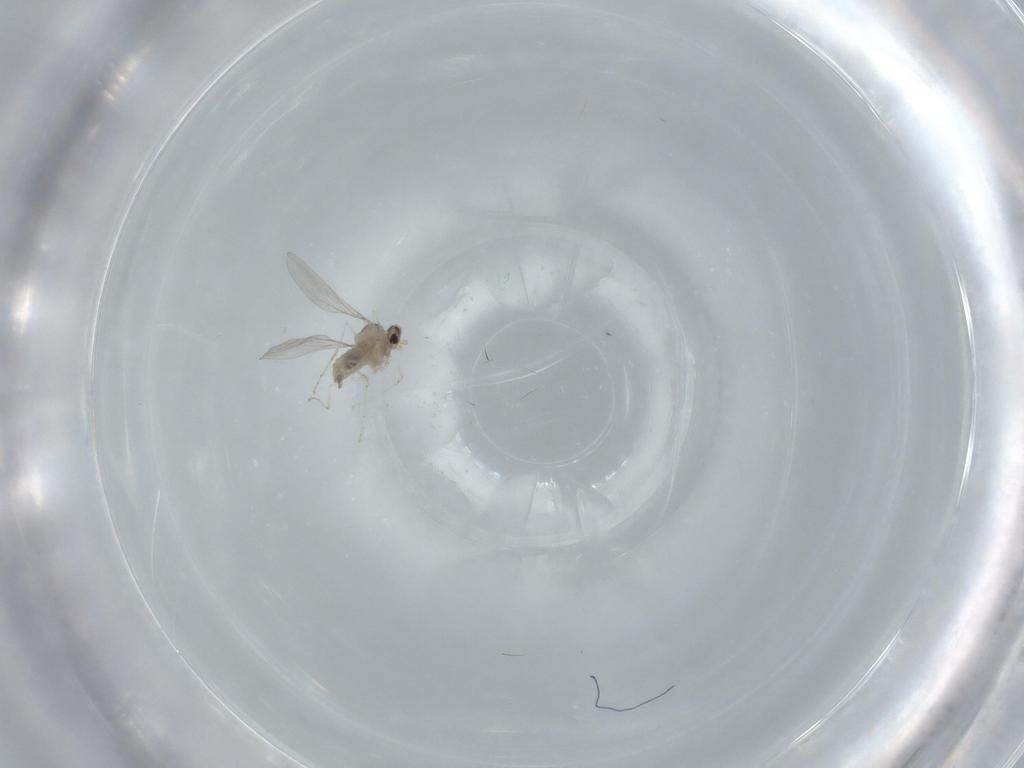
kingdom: Animalia
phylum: Arthropoda
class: Insecta
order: Diptera
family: Cecidomyiidae
